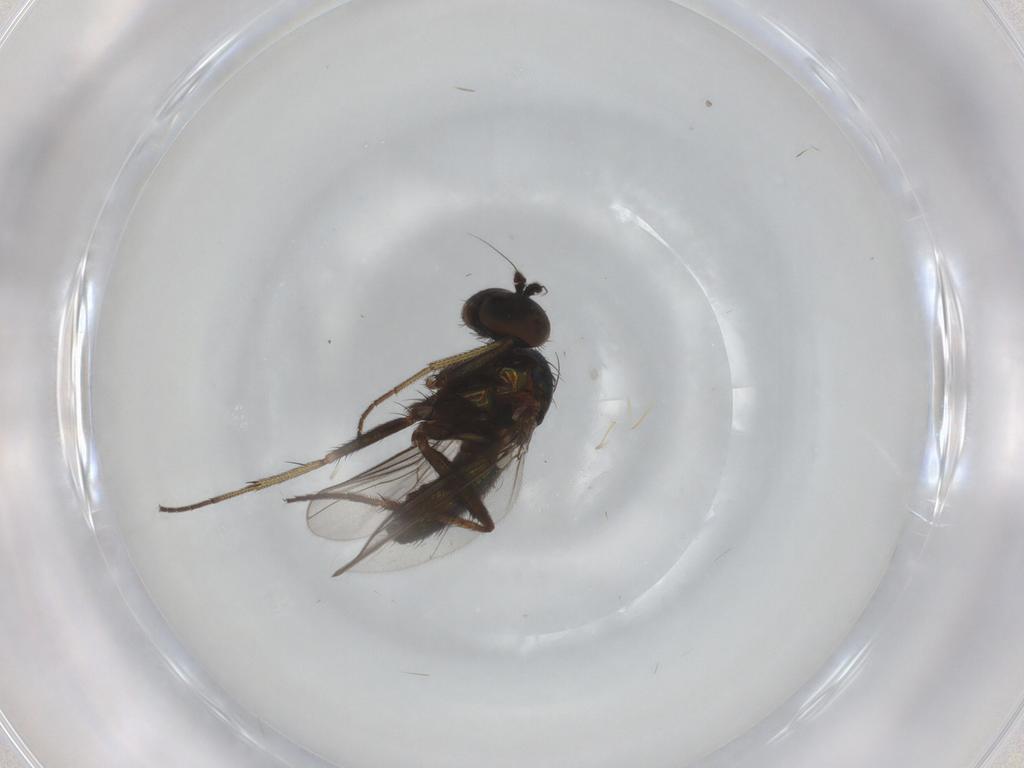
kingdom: Animalia
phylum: Arthropoda
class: Insecta
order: Diptera
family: Dolichopodidae
